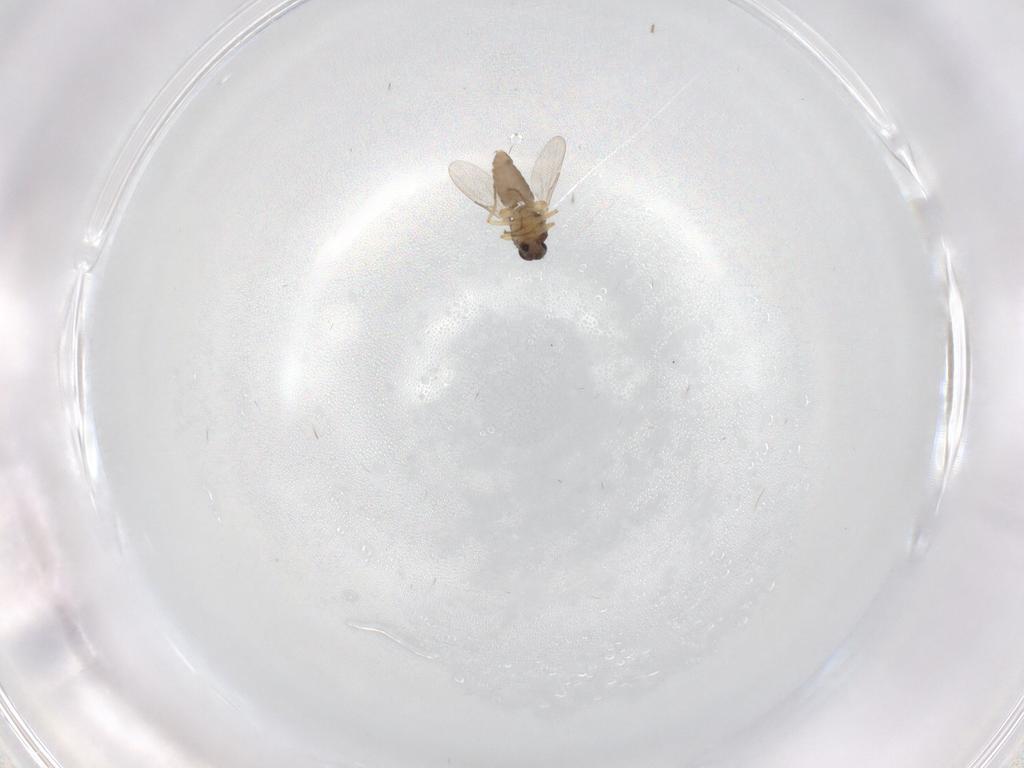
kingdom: Animalia
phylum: Arthropoda
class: Insecta
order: Diptera
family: Ceratopogonidae
